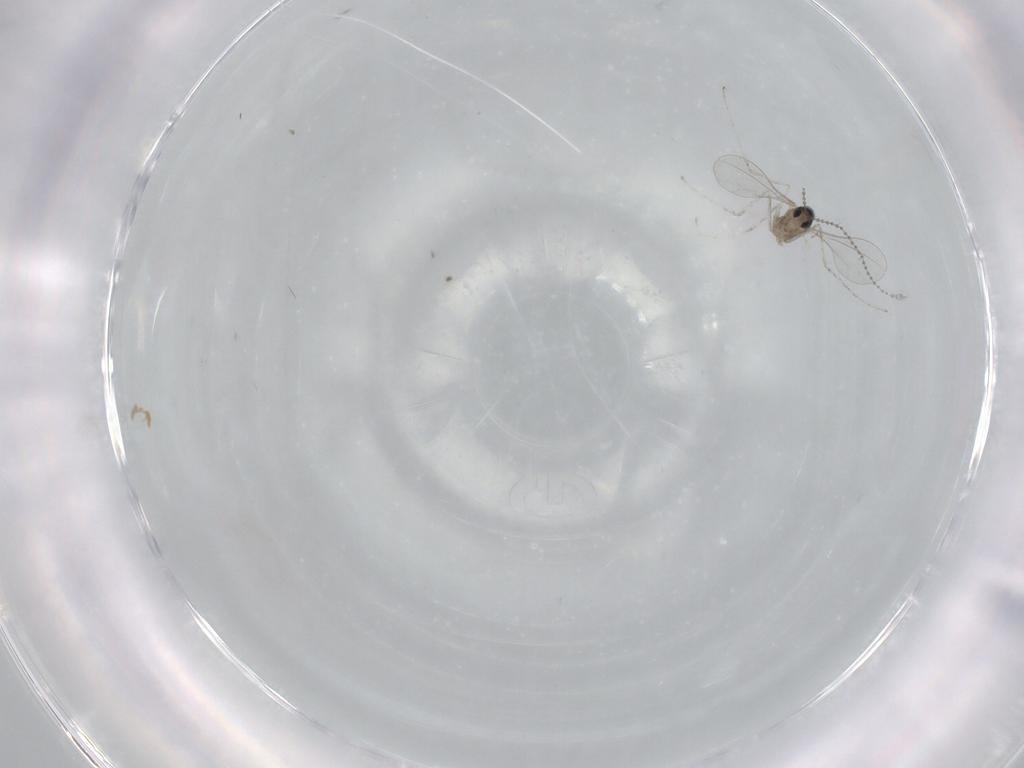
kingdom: Animalia
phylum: Arthropoda
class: Insecta
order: Diptera
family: Cecidomyiidae
